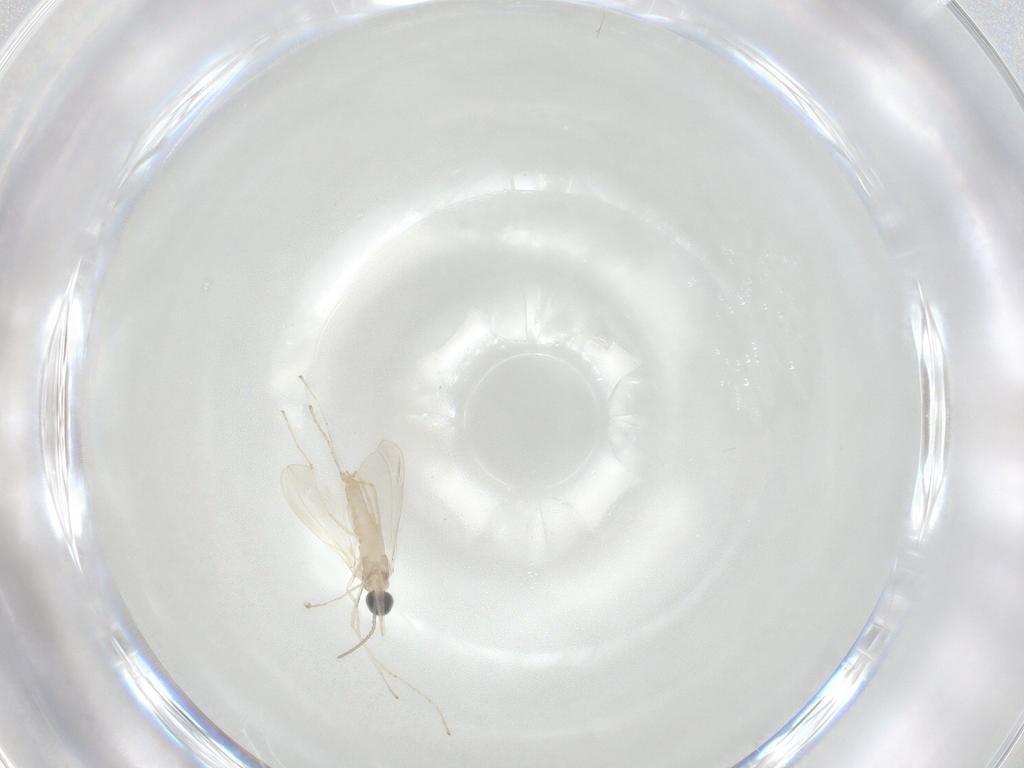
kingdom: Animalia
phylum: Arthropoda
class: Insecta
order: Diptera
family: Cecidomyiidae
